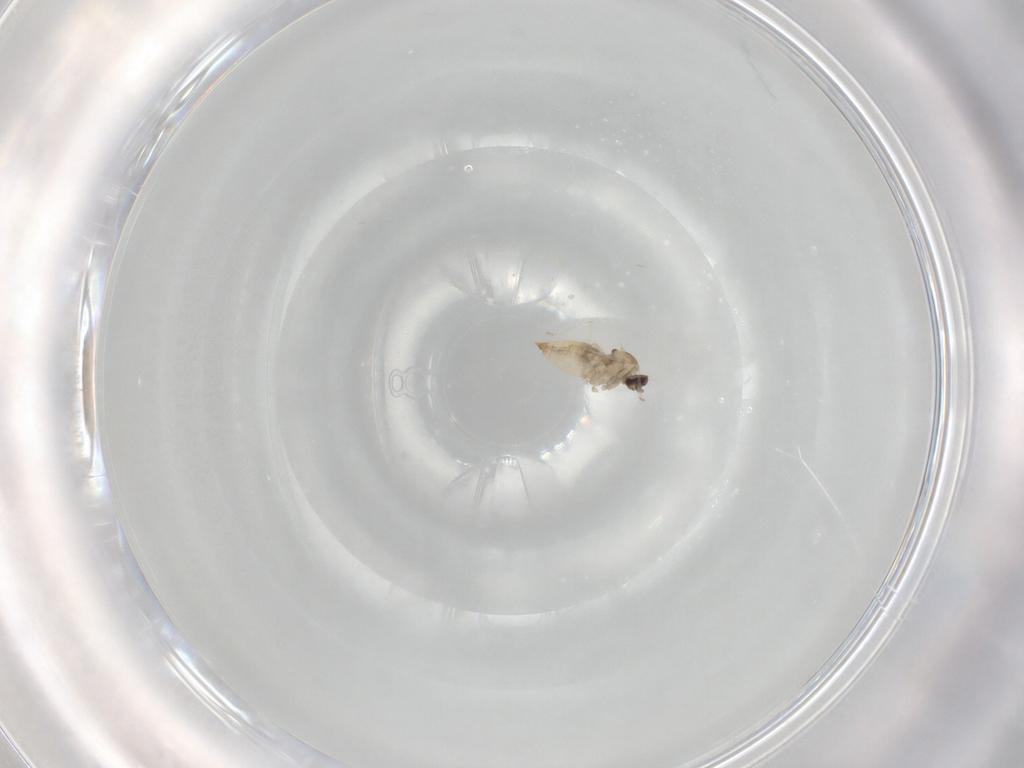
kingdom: Animalia
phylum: Arthropoda
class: Insecta
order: Diptera
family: Cecidomyiidae
